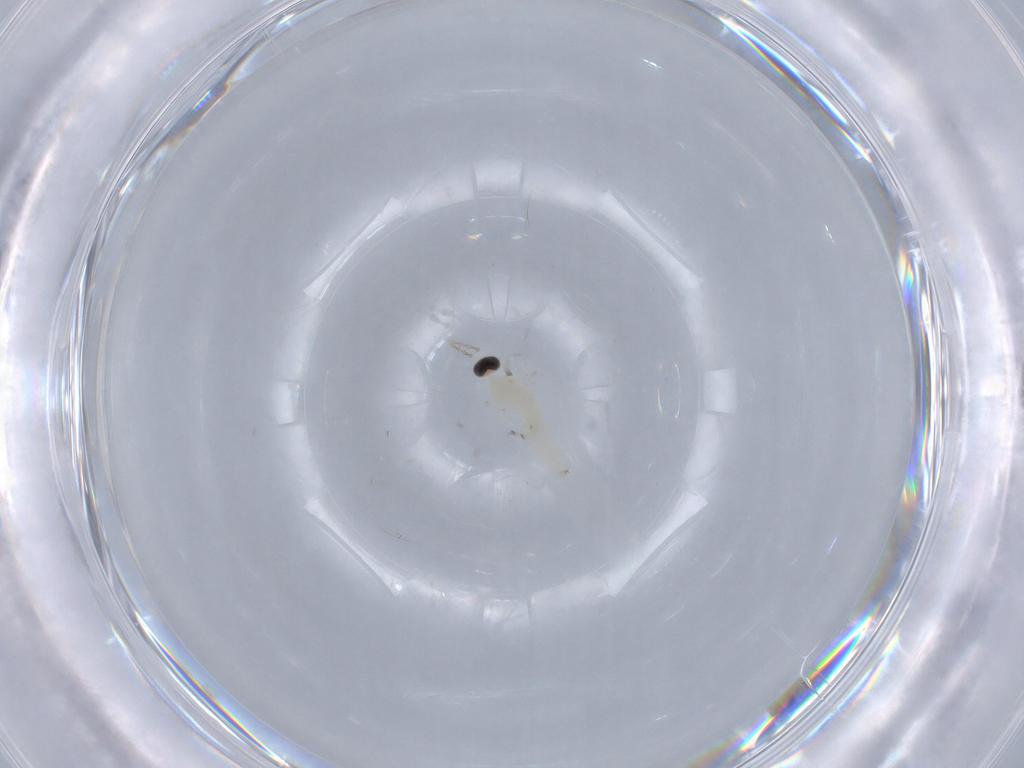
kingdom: Animalia
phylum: Arthropoda
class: Insecta
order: Diptera
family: Cecidomyiidae
